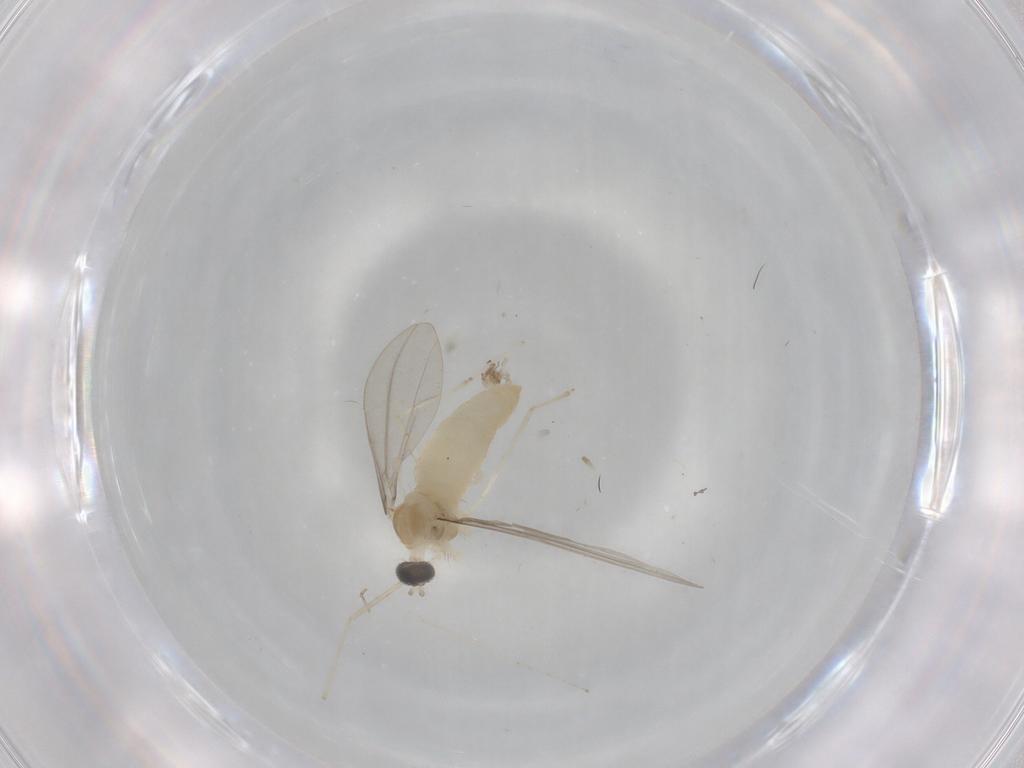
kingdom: Animalia
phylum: Arthropoda
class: Insecta
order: Diptera
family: Cecidomyiidae
